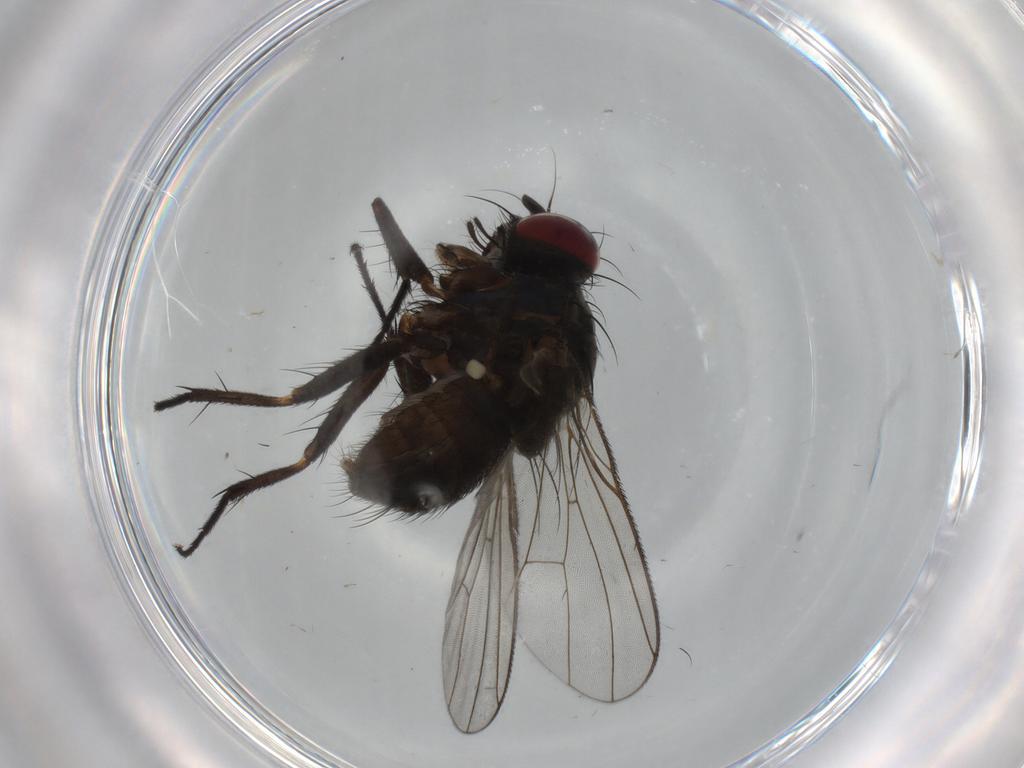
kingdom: Animalia
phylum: Arthropoda
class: Insecta
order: Diptera
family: Muscidae
